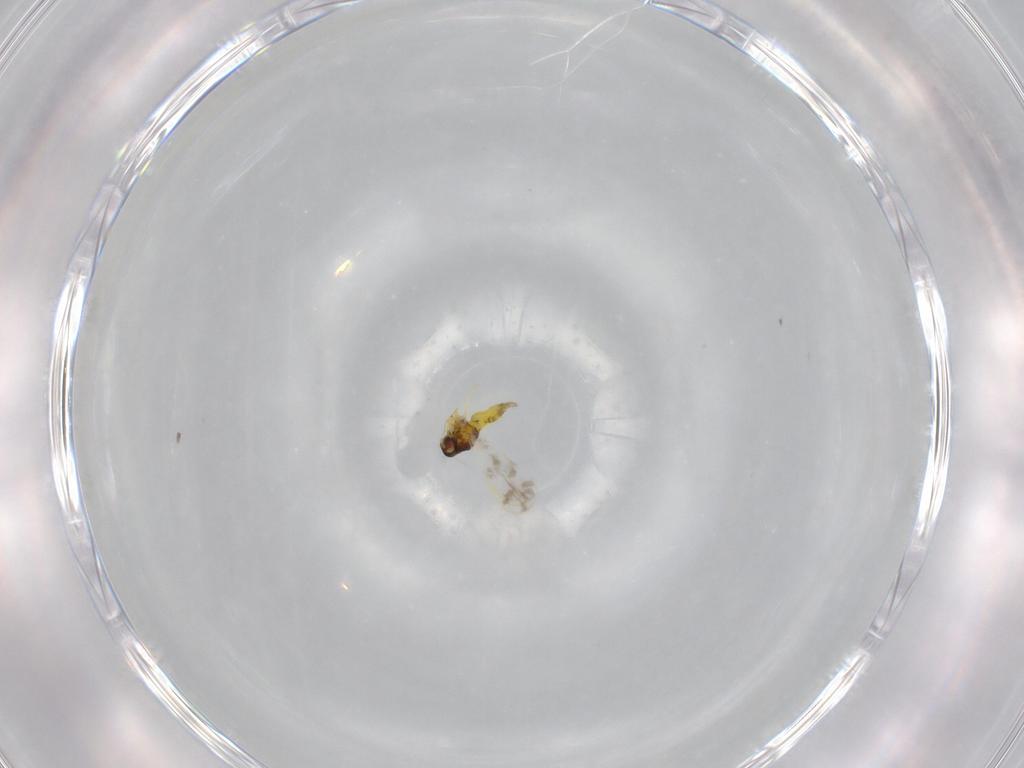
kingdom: Animalia
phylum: Arthropoda
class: Insecta
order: Hemiptera
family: Aleyrodidae
